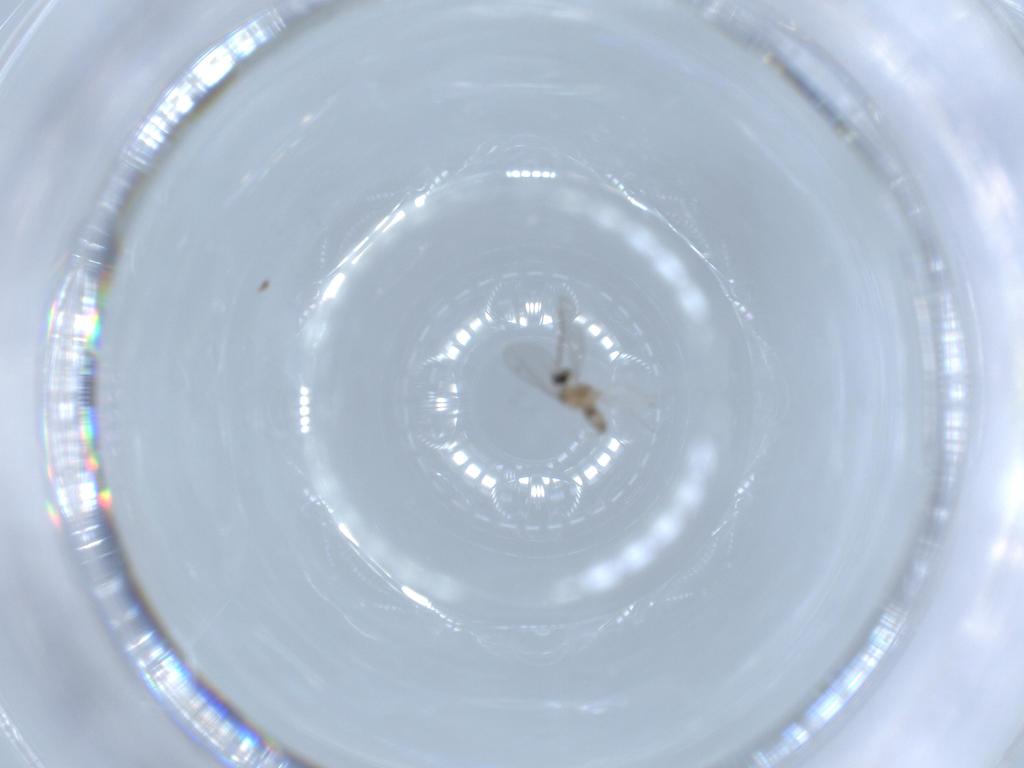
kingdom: Animalia
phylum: Arthropoda
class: Insecta
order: Diptera
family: Cecidomyiidae
